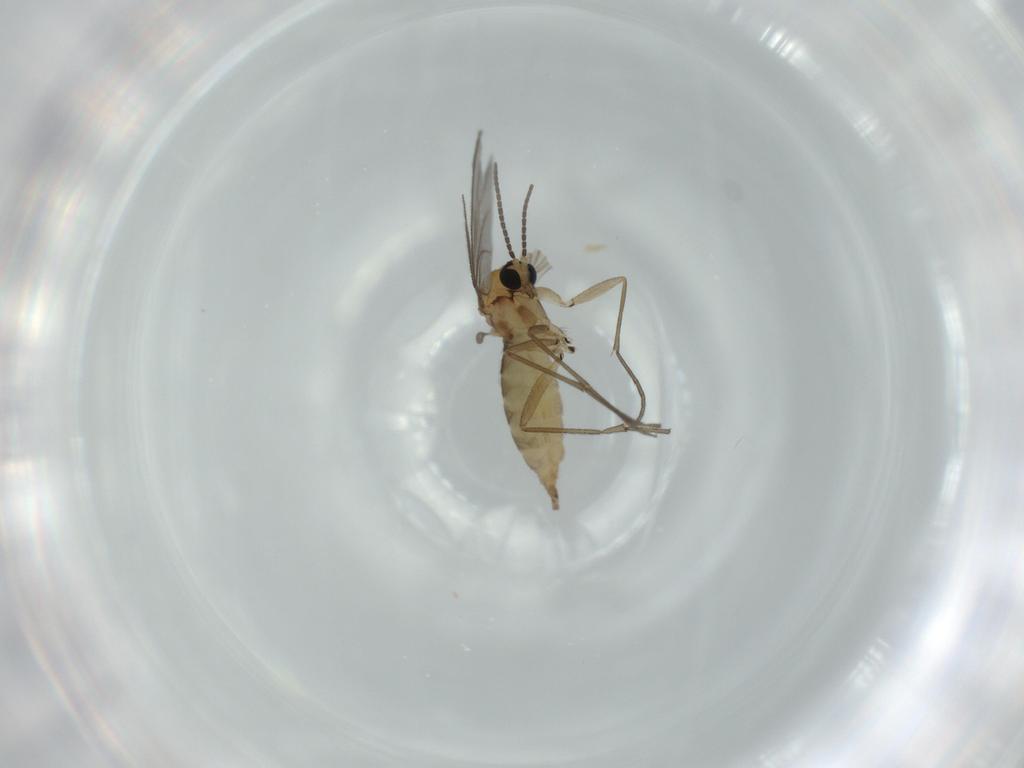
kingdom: Animalia
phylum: Arthropoda
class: Insecta
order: Diptera
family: Sciaridae
